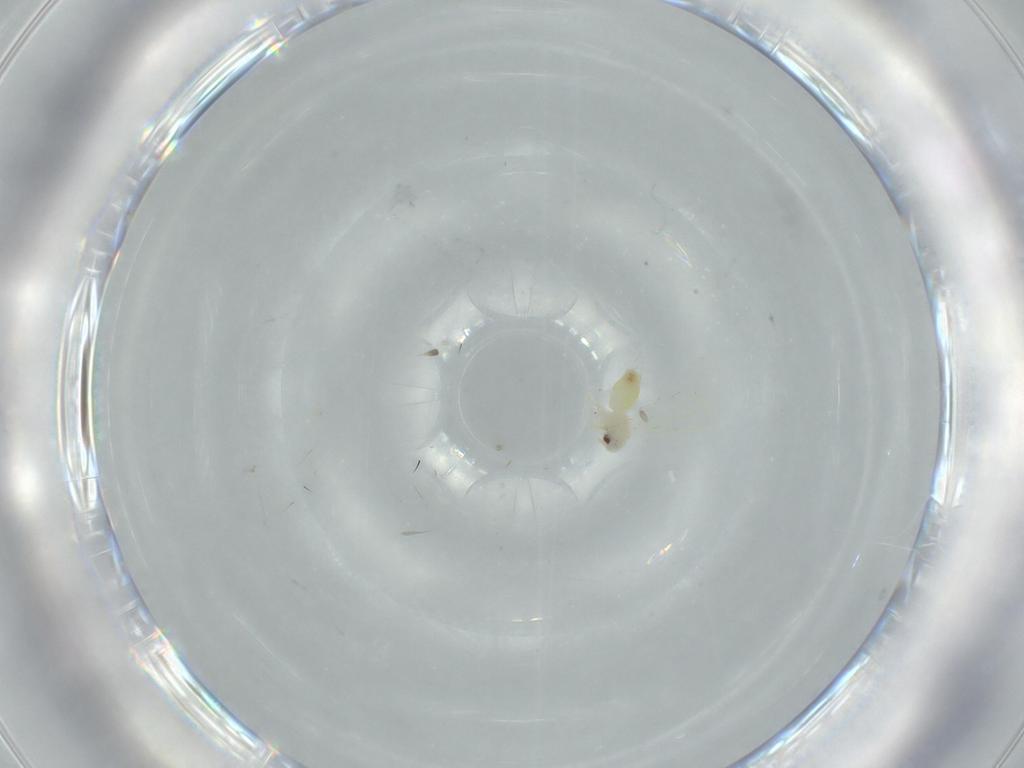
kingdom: Animalia
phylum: Arthropoda
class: Insecta
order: Hemiptera
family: Aleyrodidae
